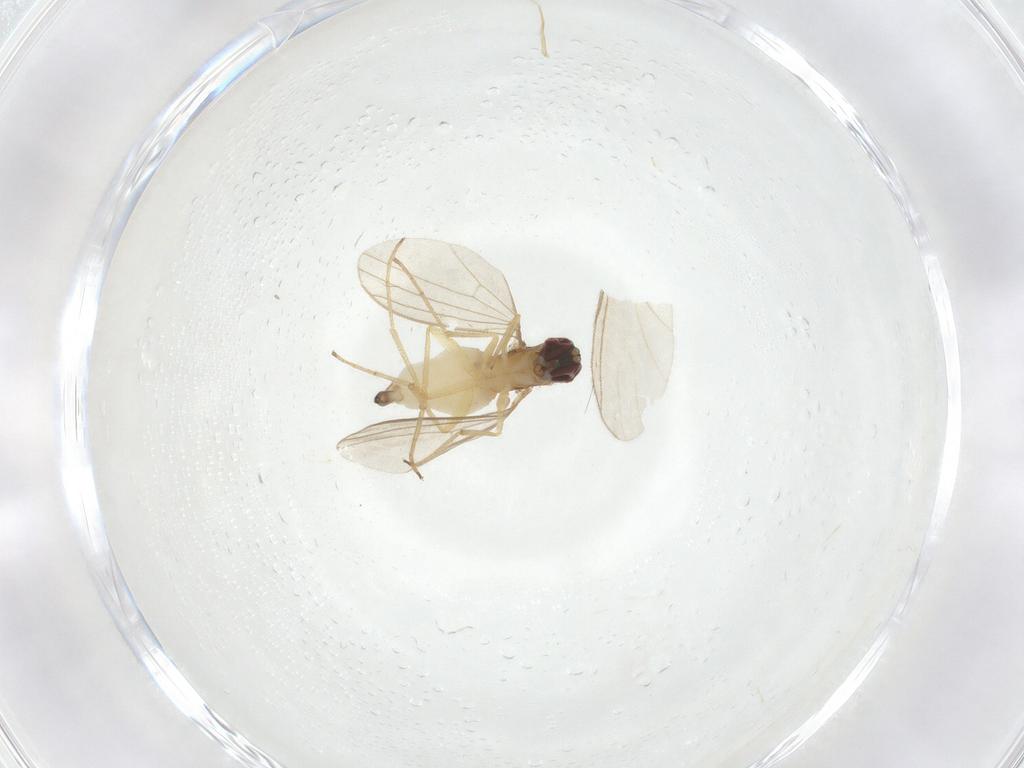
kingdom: Animalia
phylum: Arthropoda
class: Insecta
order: Diptera
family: Dolichopodidae
